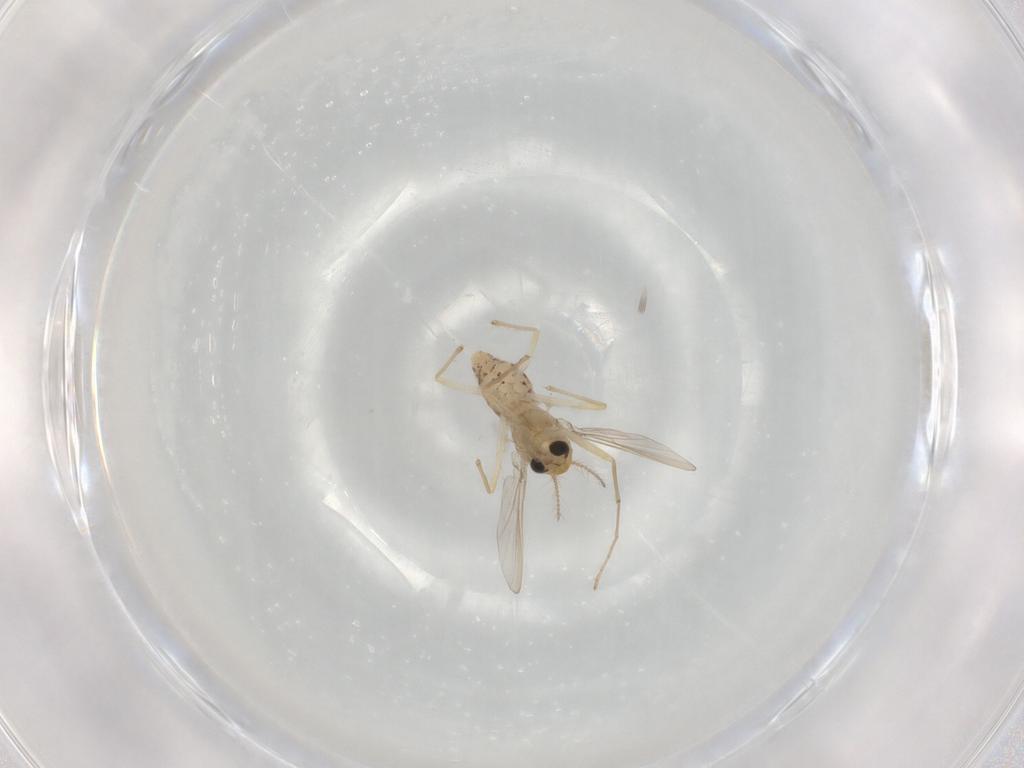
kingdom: Animalia
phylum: Arthropoda
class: Insecta
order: Diptera
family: Chironomidae
